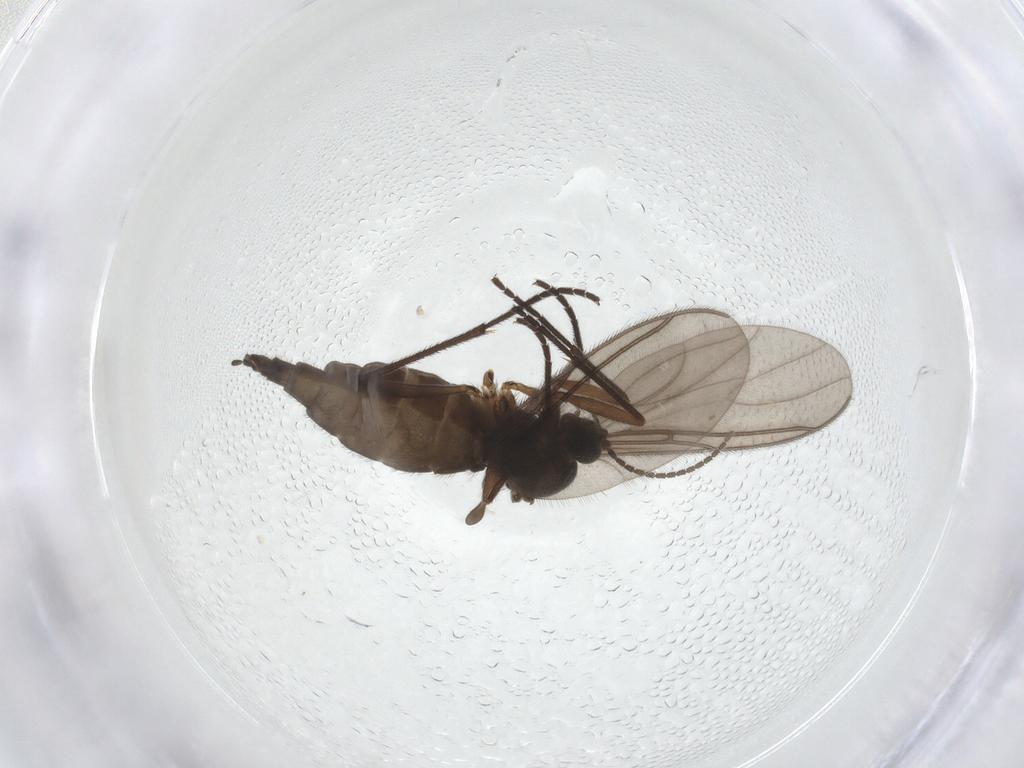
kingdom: Animalia
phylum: Arthropoda
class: Insecta
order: Diptera
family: Sciaridae
